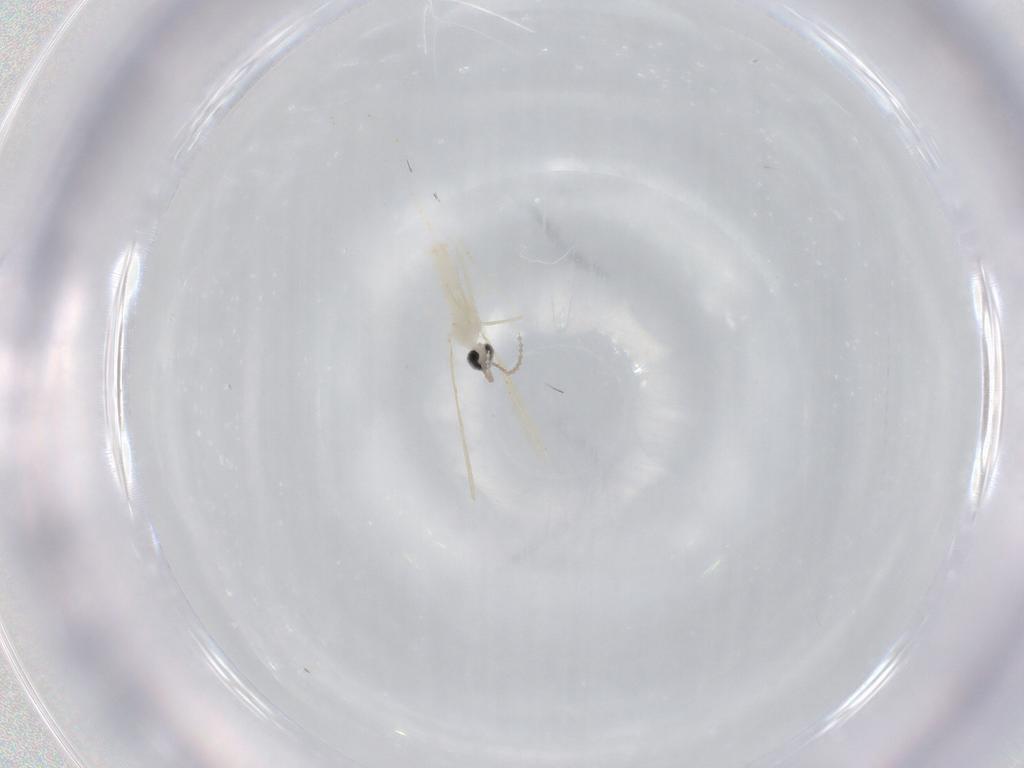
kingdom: Animalia
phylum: Arthropoda
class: Insecta
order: Diptera
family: Cecidomyiidae
